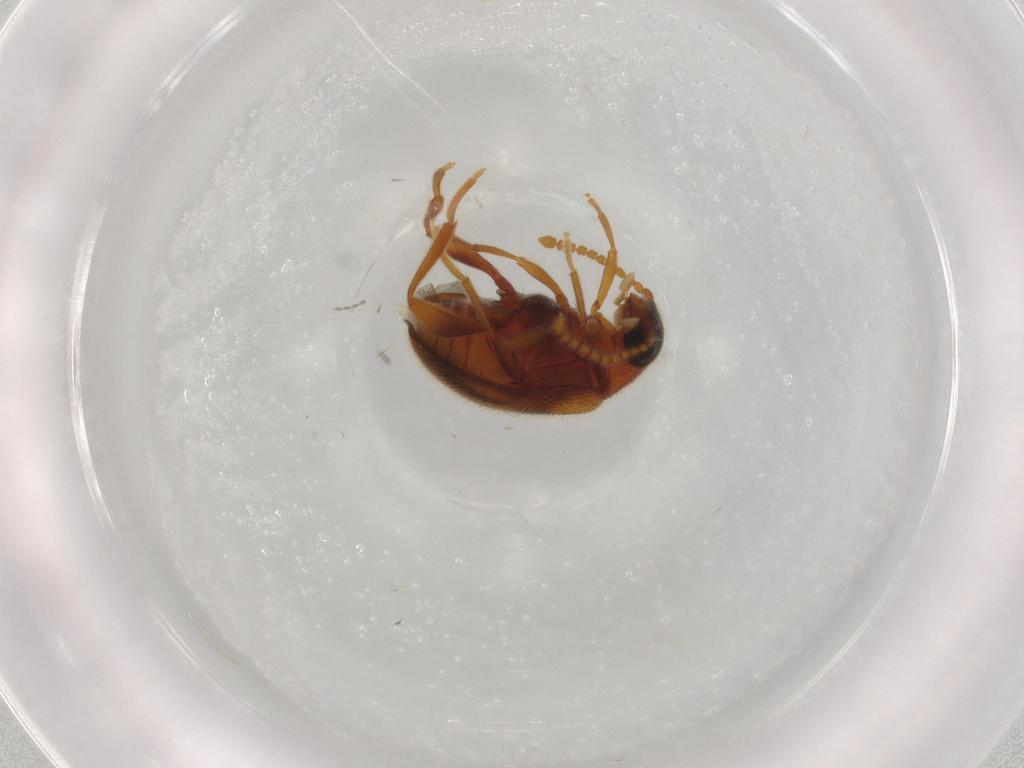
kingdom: Animalia
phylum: Arthropoda
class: Insecta
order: Coleoptera
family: Aderidae
